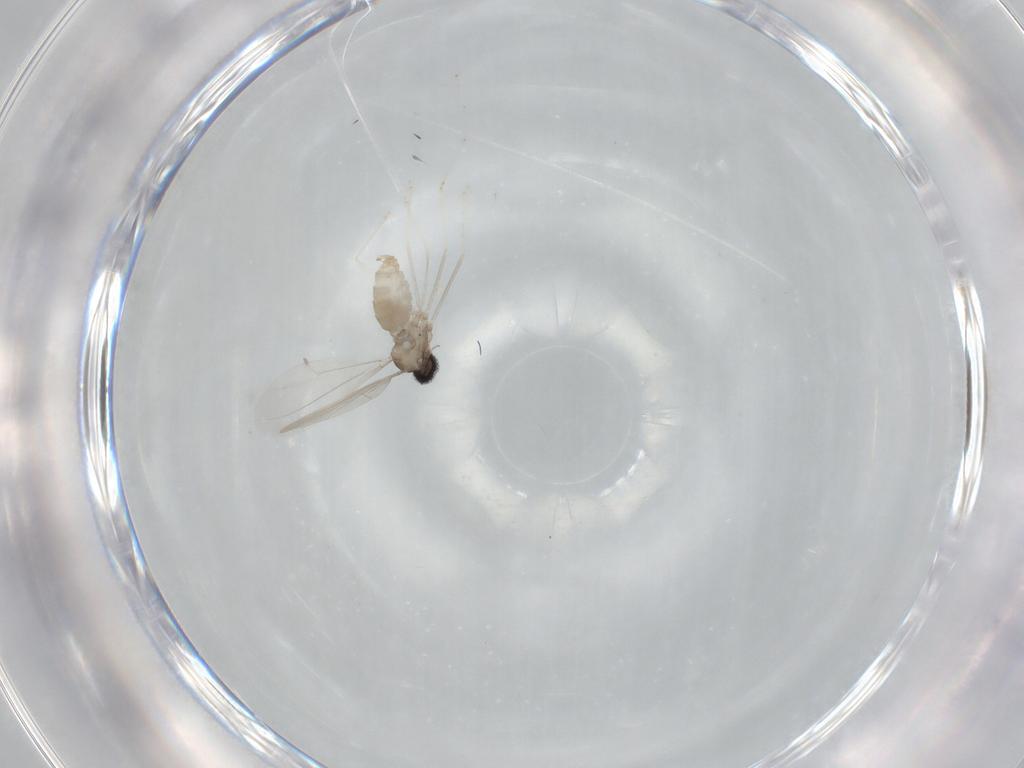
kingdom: Animalia
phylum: Arthropoda
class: Insecta
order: Diptera
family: Cecidomyiidae
